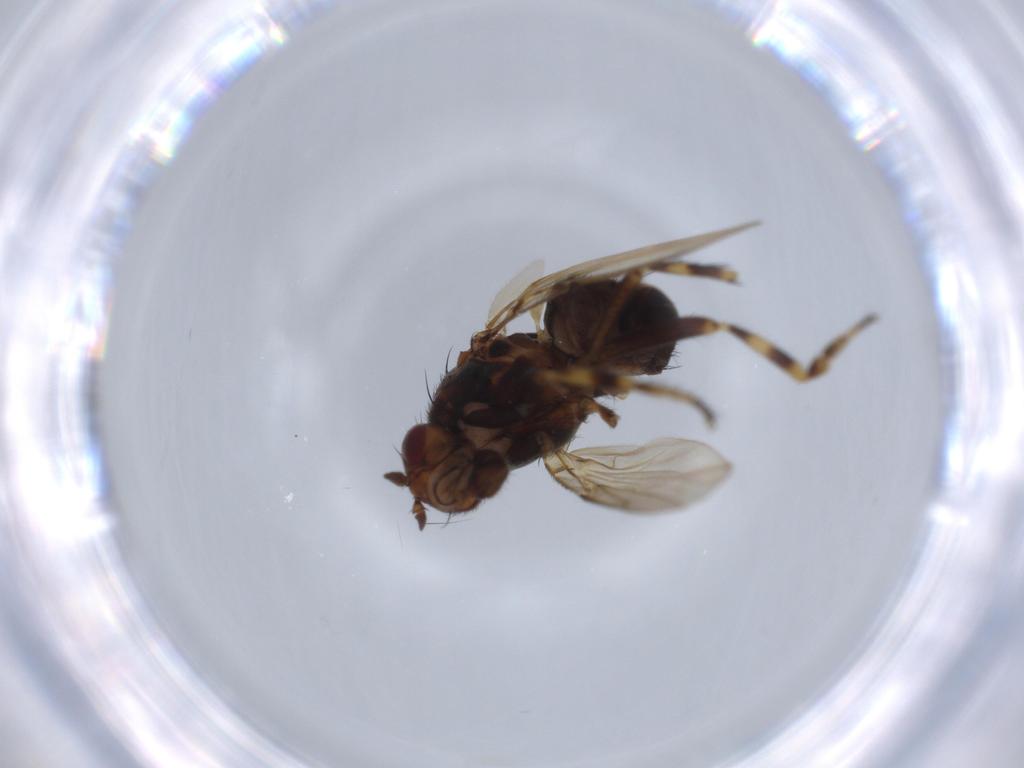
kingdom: Animalia
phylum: Arthropoda
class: Insecta
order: Diptera
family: Sphaeroceridae
